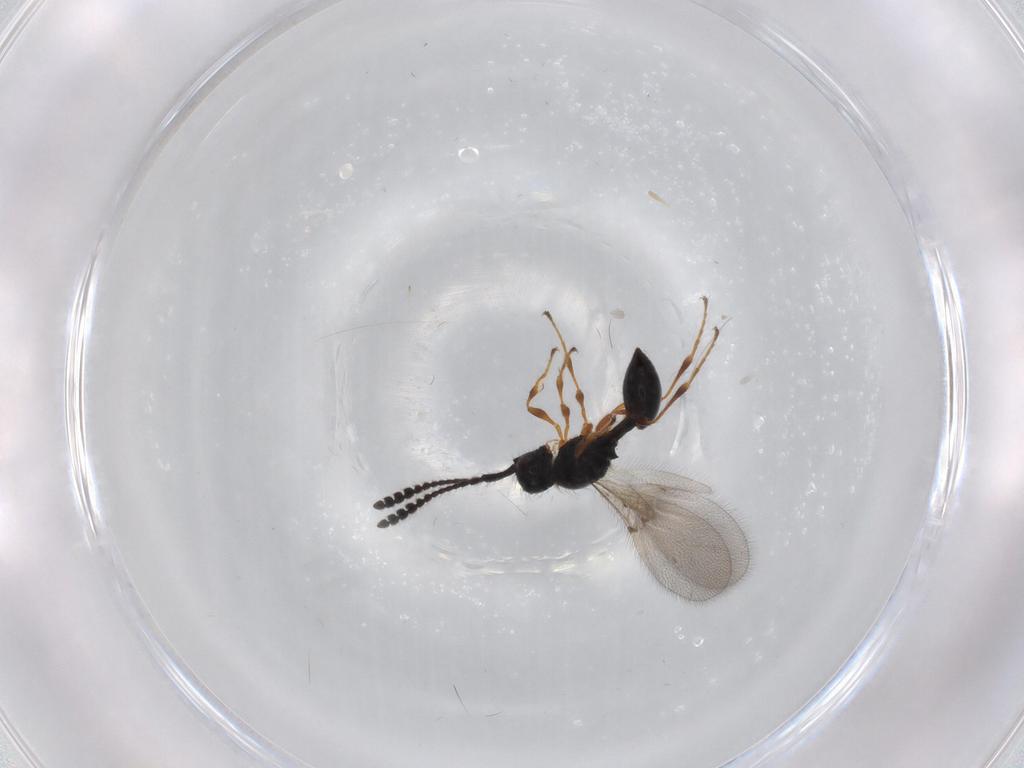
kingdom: Animalia
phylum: Arthropoda
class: Insecta
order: Hymenoptera
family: Diapriidae
